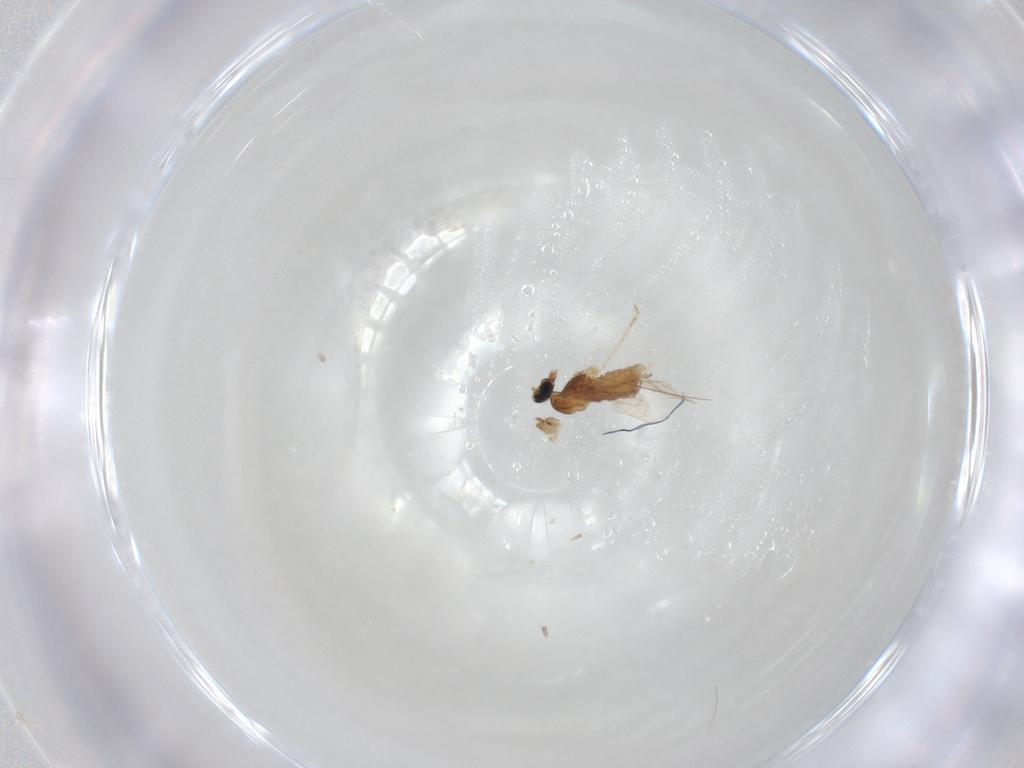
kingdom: Animalia
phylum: Arthropoda
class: Insecta
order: Diptera
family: Cecidomyiidae
